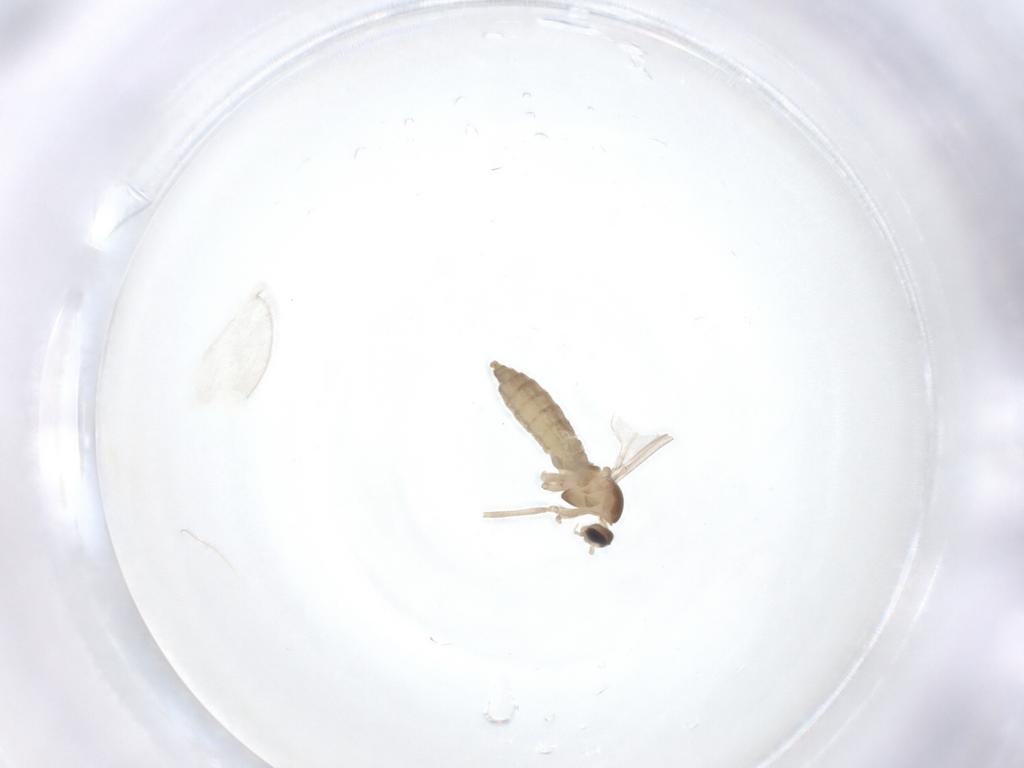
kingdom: Animalia
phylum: Arthropoda
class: Insecta
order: Diptera
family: Cecidomyiidae
